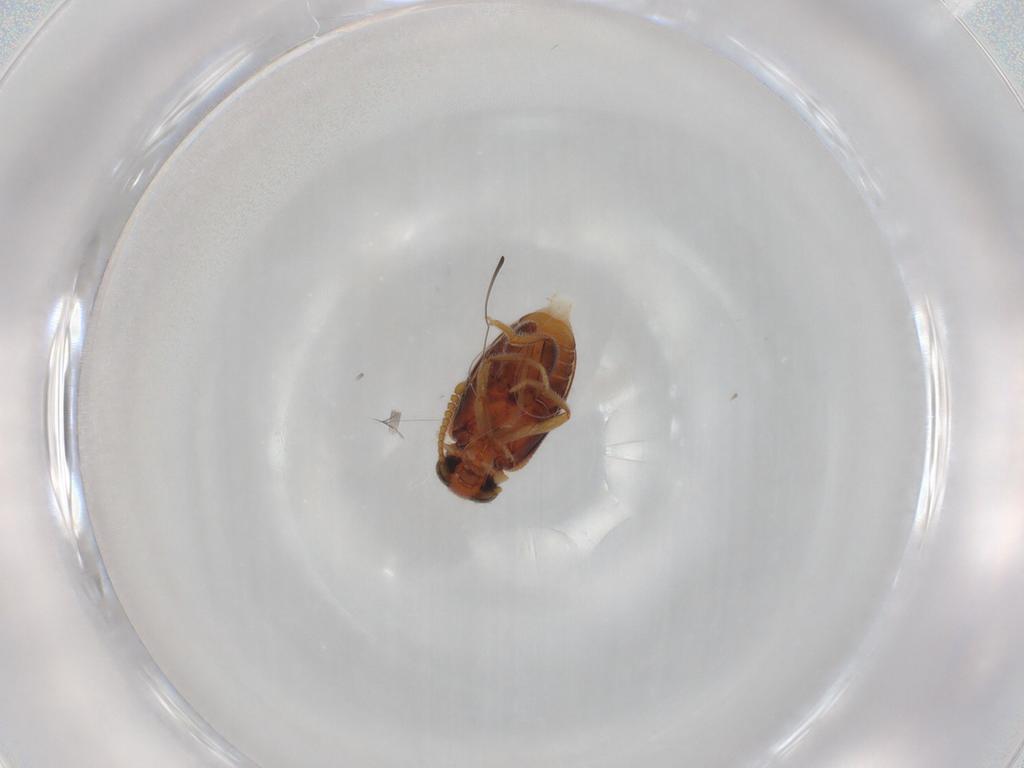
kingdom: Animalia
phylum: Arthropoda
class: Insecta
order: Coleoptera
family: Aderidae
